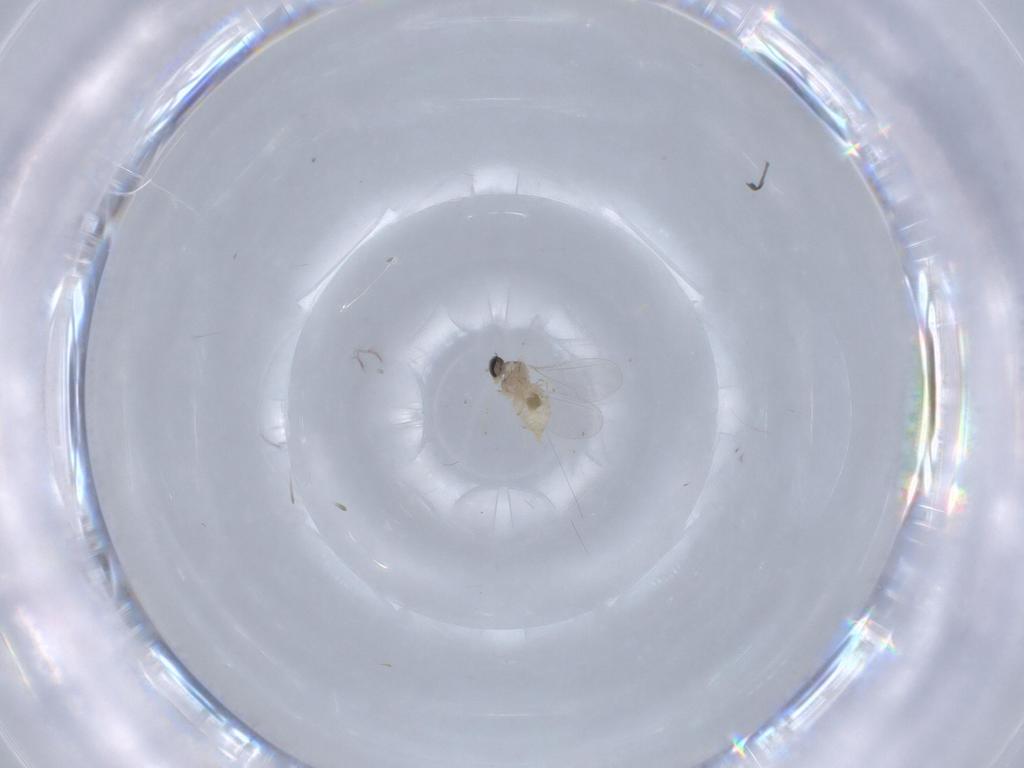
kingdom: Animalia
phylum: Arthropoda
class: Insecta
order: Diptera
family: Cecidomyiidae
